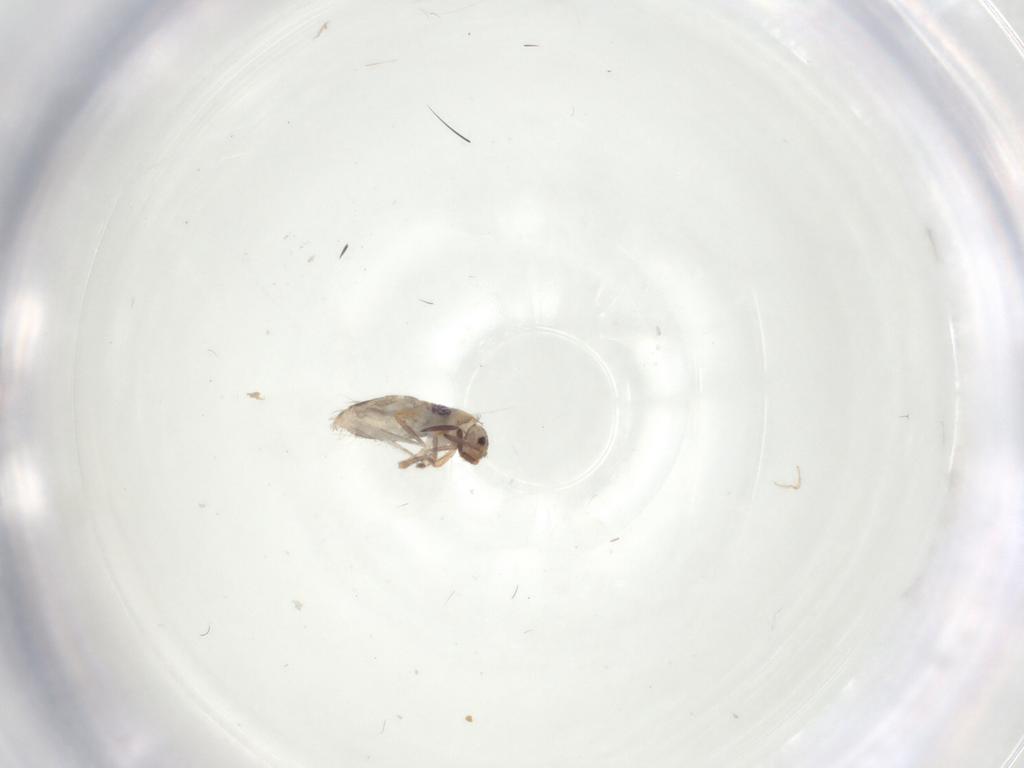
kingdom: Animalia
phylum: Arthropoda
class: Collembola
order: Entomobryomorpha
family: Entomobryidae
